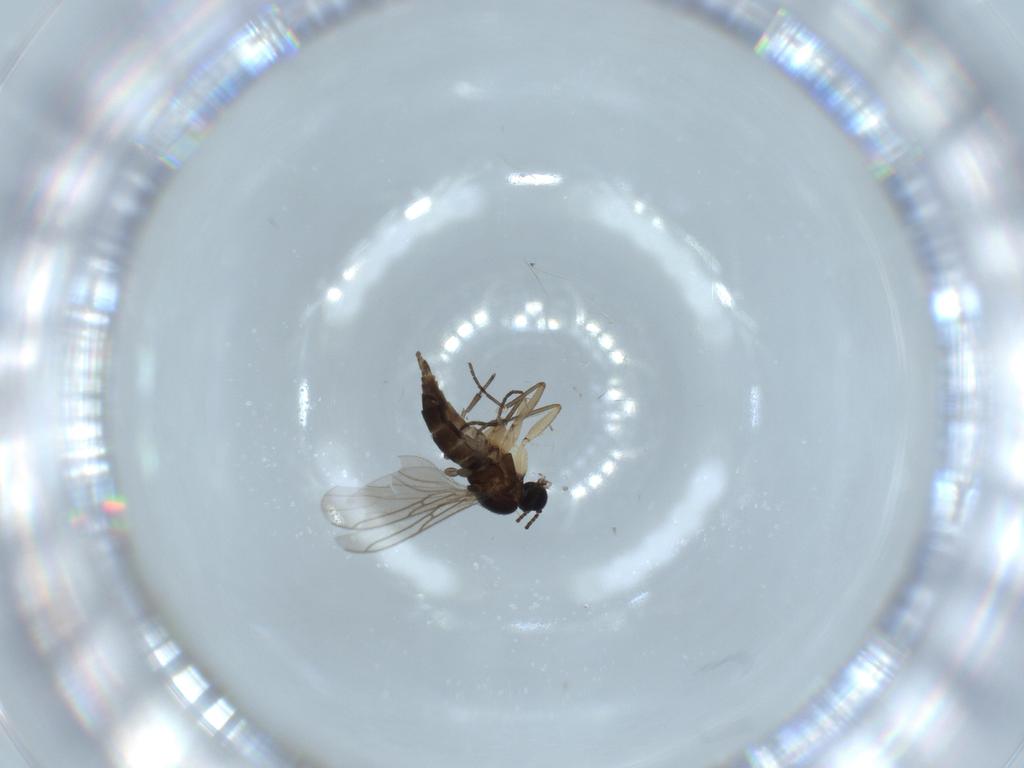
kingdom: Animalia
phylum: Arthropoda
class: Insecta
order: Diptera
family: Sciaridae
